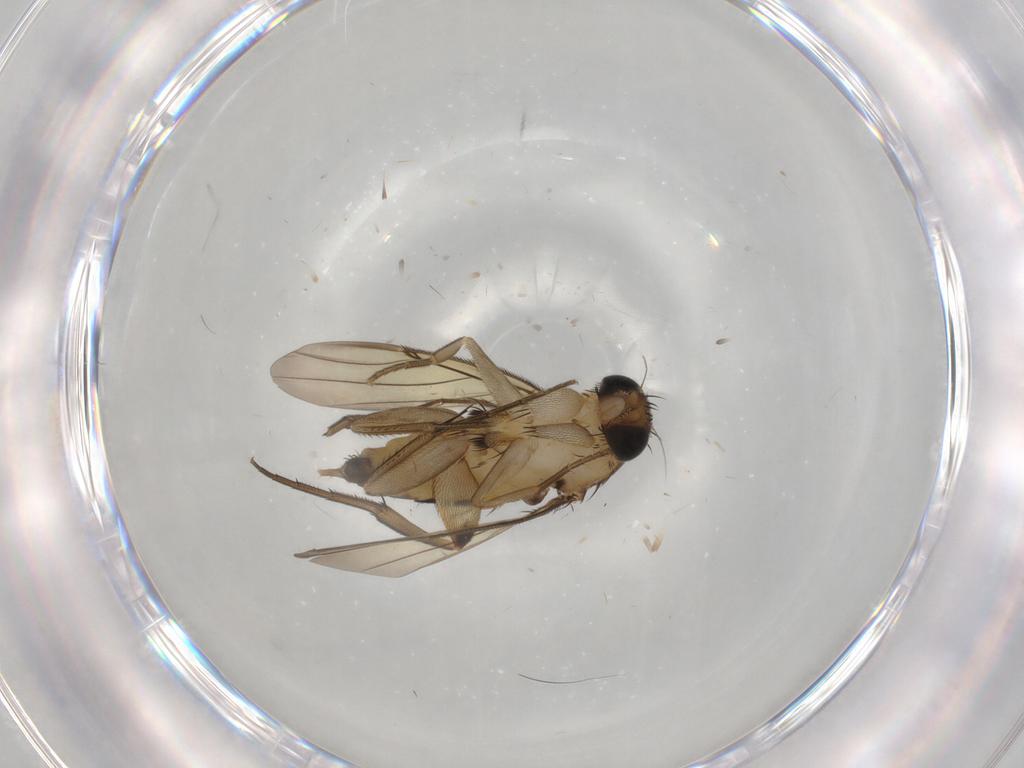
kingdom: Animalia
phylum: Arthropoda
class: Insecta
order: Diptera
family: Phoridae
